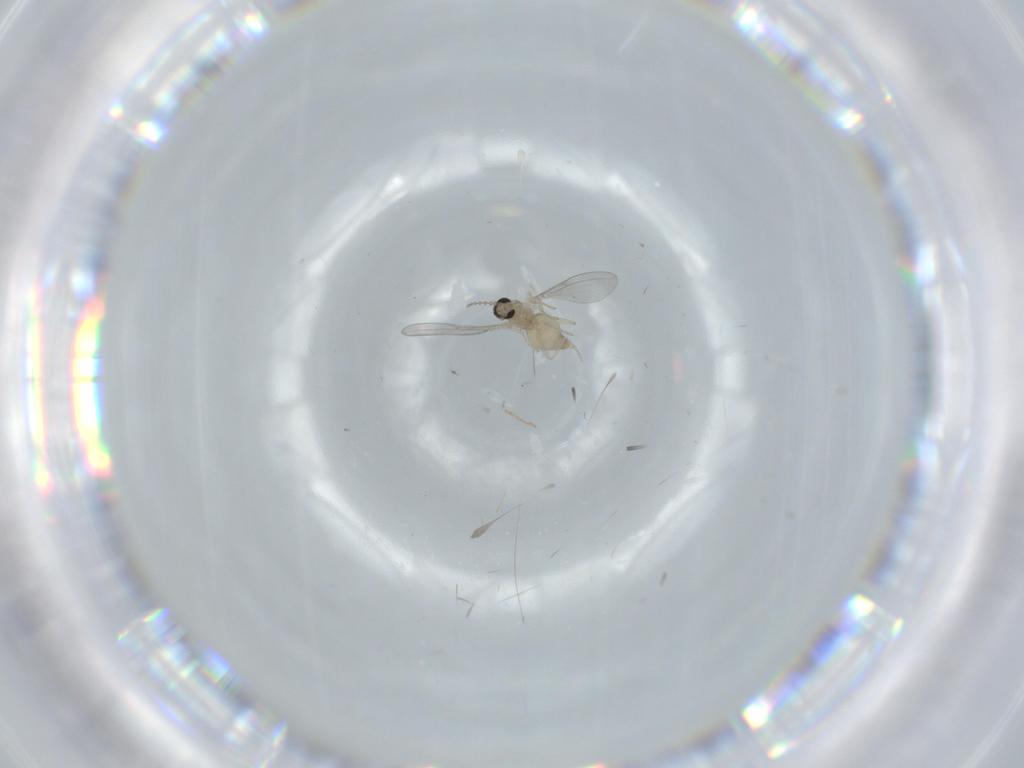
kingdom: Animalia
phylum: Arthropoda
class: Insecta
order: Diptera
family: Cecidomyiidae
